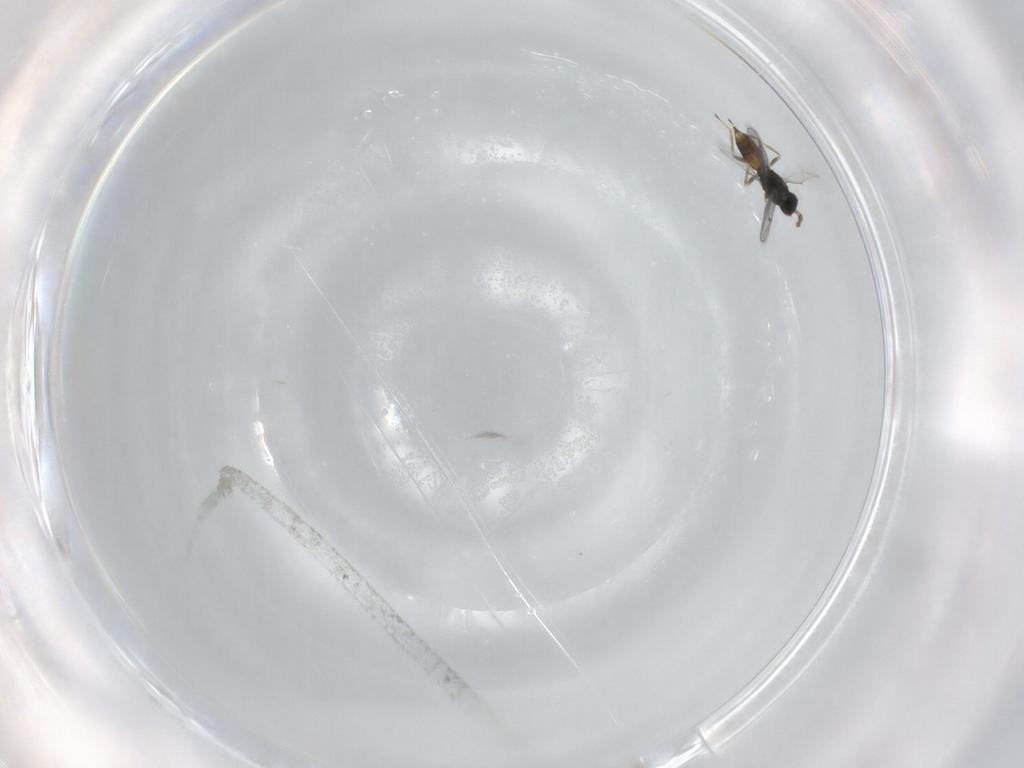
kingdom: Animalia
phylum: Arthropoda
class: Insecta
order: Hymenoptera
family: Eulophidae
